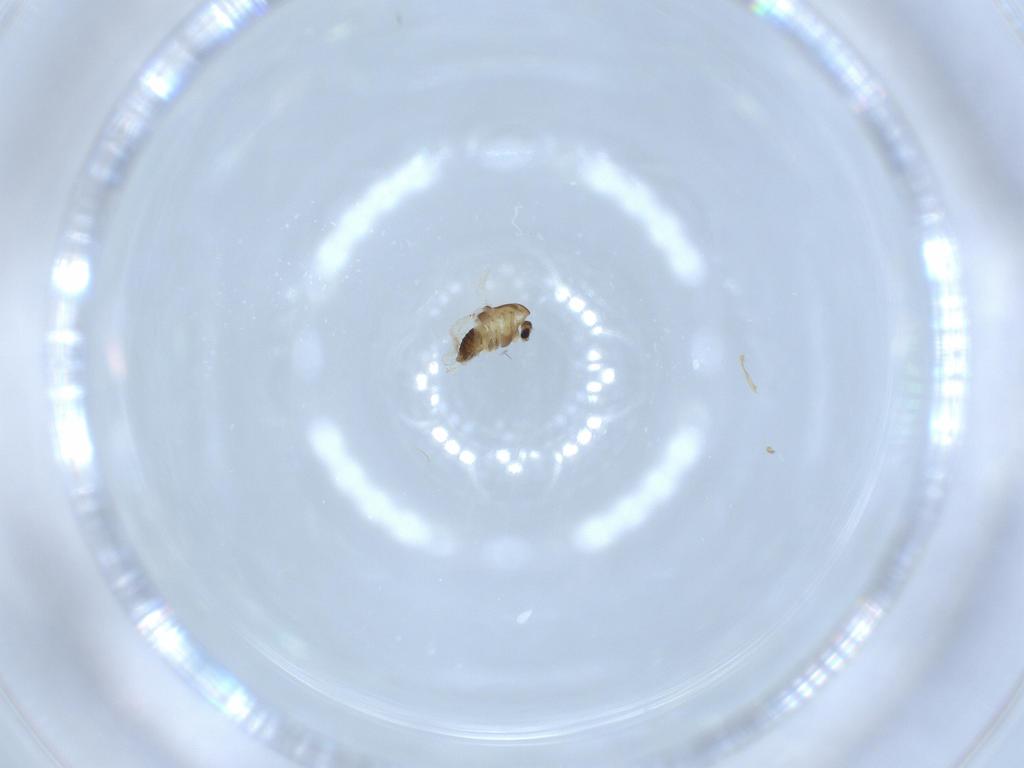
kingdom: Animalia
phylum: Arthropoda
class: Insecta
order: Diptera
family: Chironomidae
